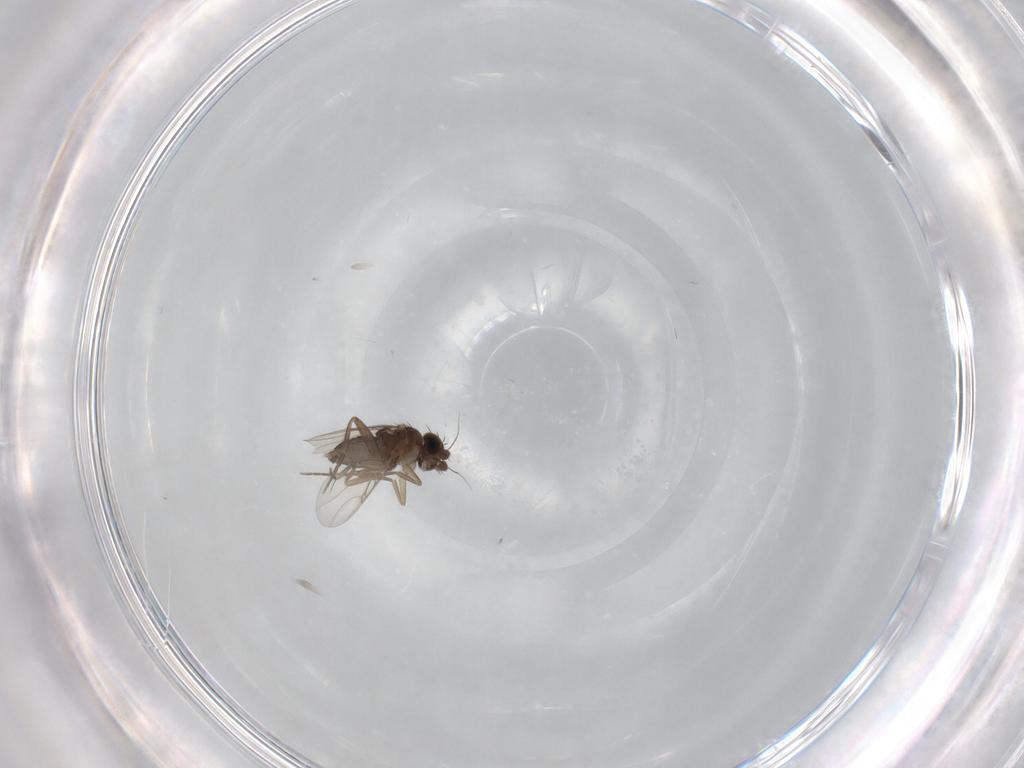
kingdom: Animalia
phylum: Arthropoda
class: Insecta
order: Diptera
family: Phoridae
